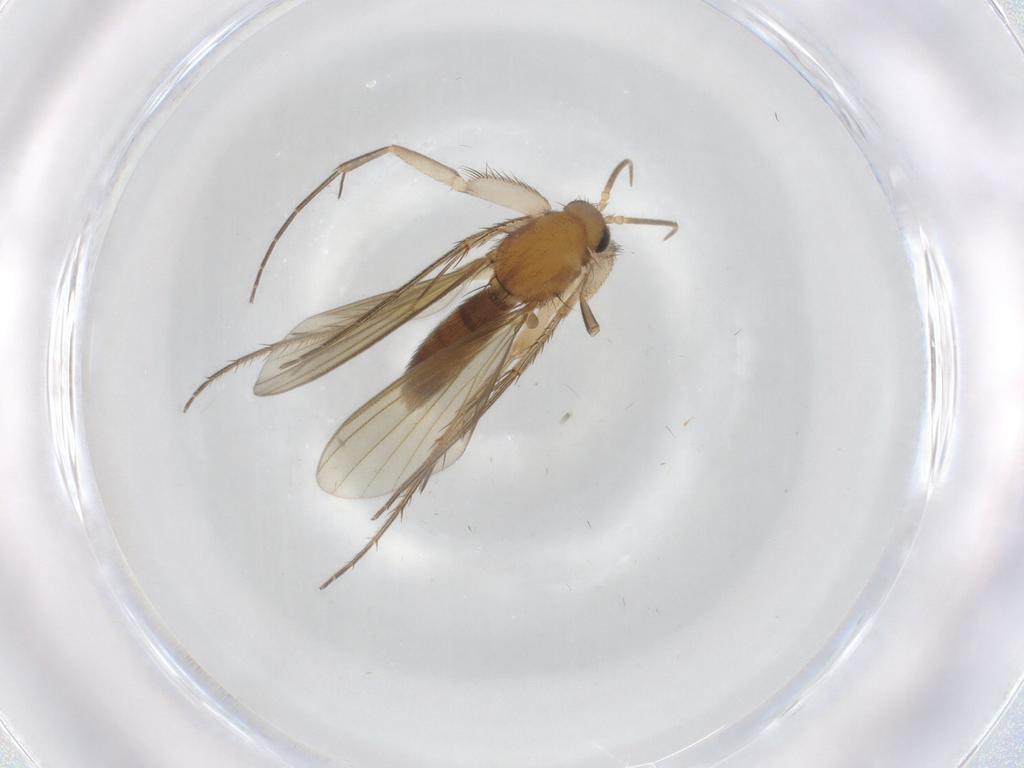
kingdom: Animalia
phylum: Arthropoda
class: Insecta
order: Diptera
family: Mycetophilidae
